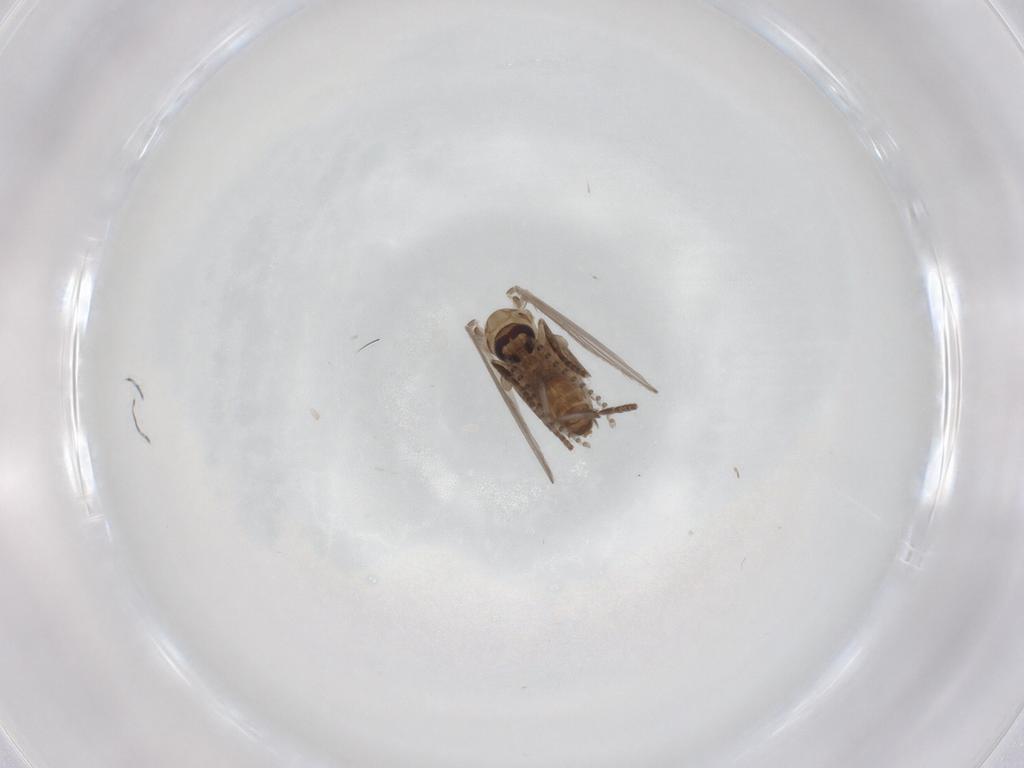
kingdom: Animalia
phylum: Arthropoda
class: Insecta
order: Diptera
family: Psychodidae
